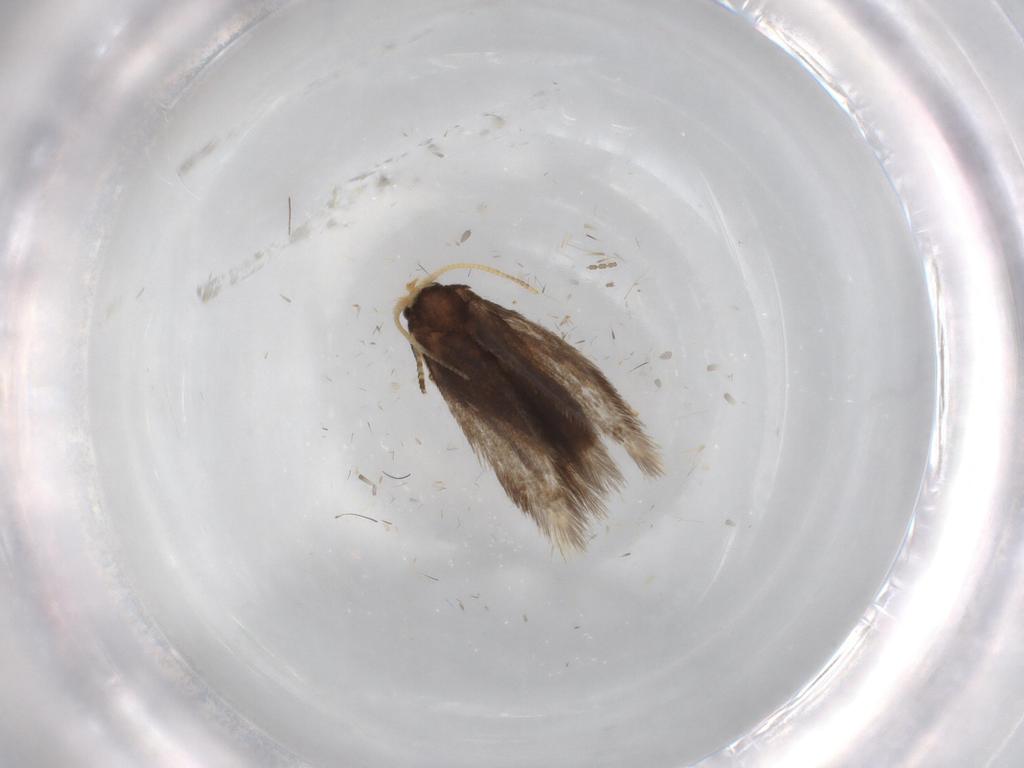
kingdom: Animalia
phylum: Arthropoda
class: Insecta
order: Lepidoptera
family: Nepticulidae
